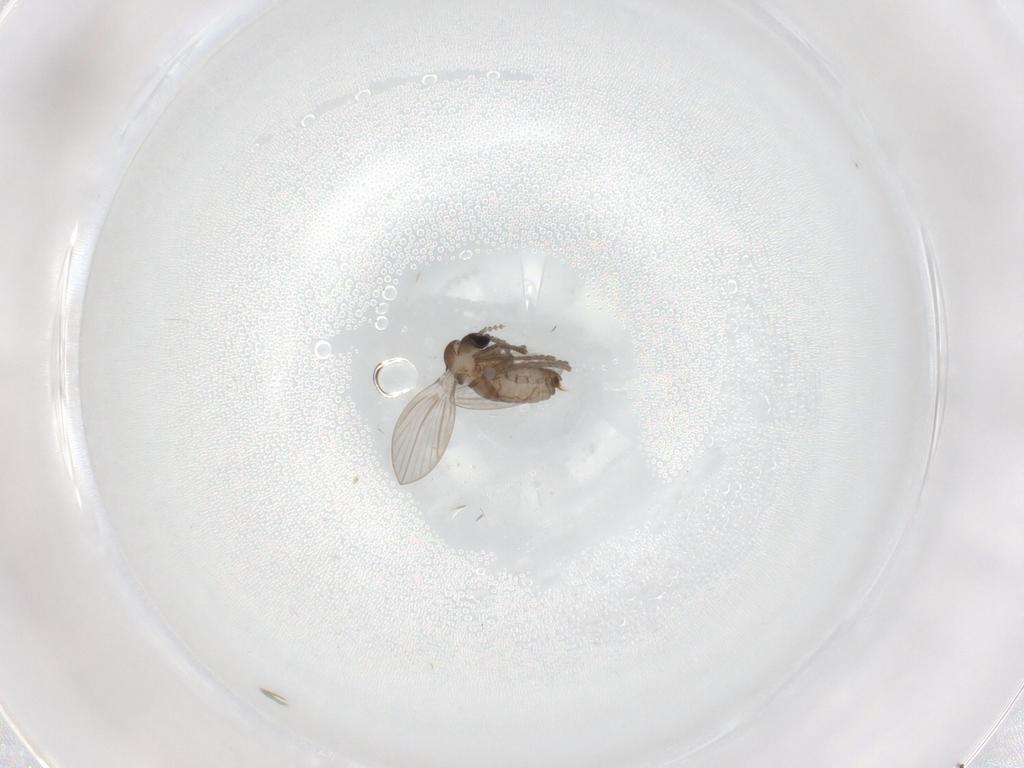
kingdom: Animalia
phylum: Arthropoda
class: Insecta
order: Diptera
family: Psychodidae
